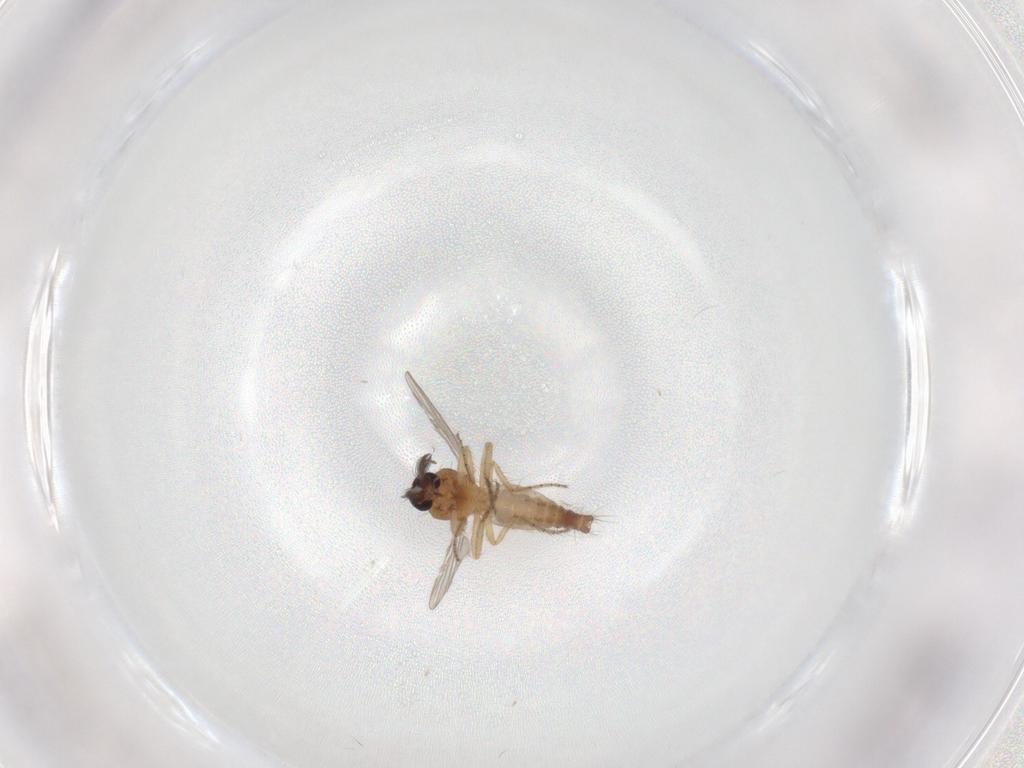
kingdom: Animalia
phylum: Arthropoda
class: Insecta
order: Diptera
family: Ceratopogonidae
